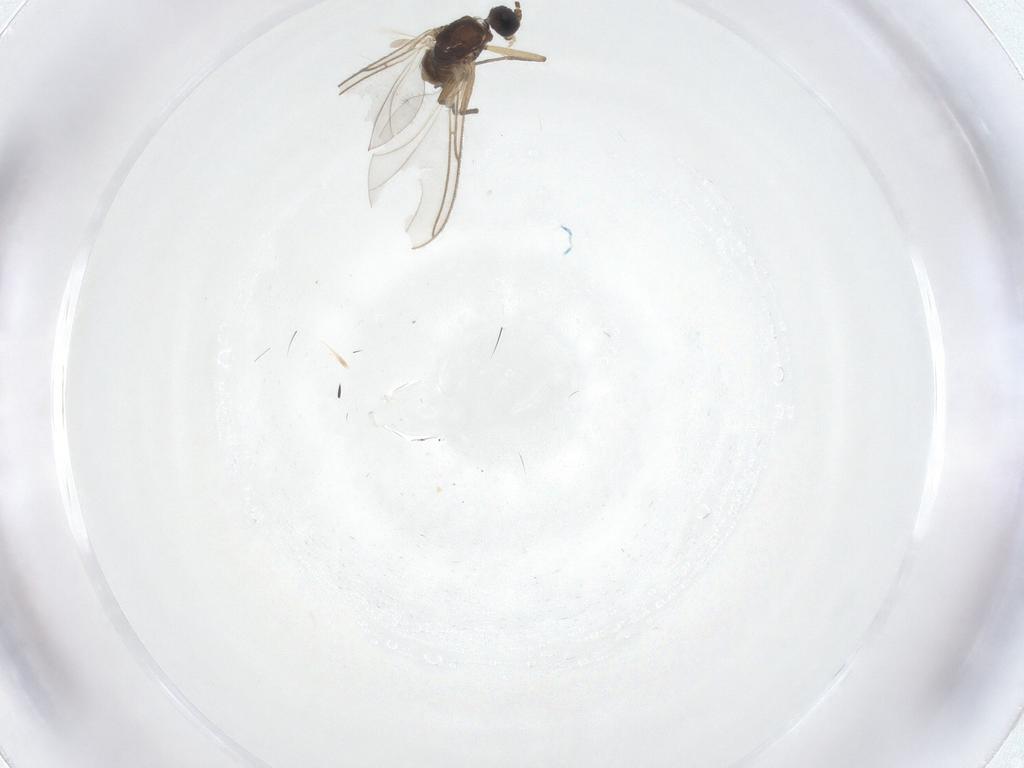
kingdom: Animalia
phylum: Arthropoda
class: Insecta
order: Diptera
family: Sciaridae
